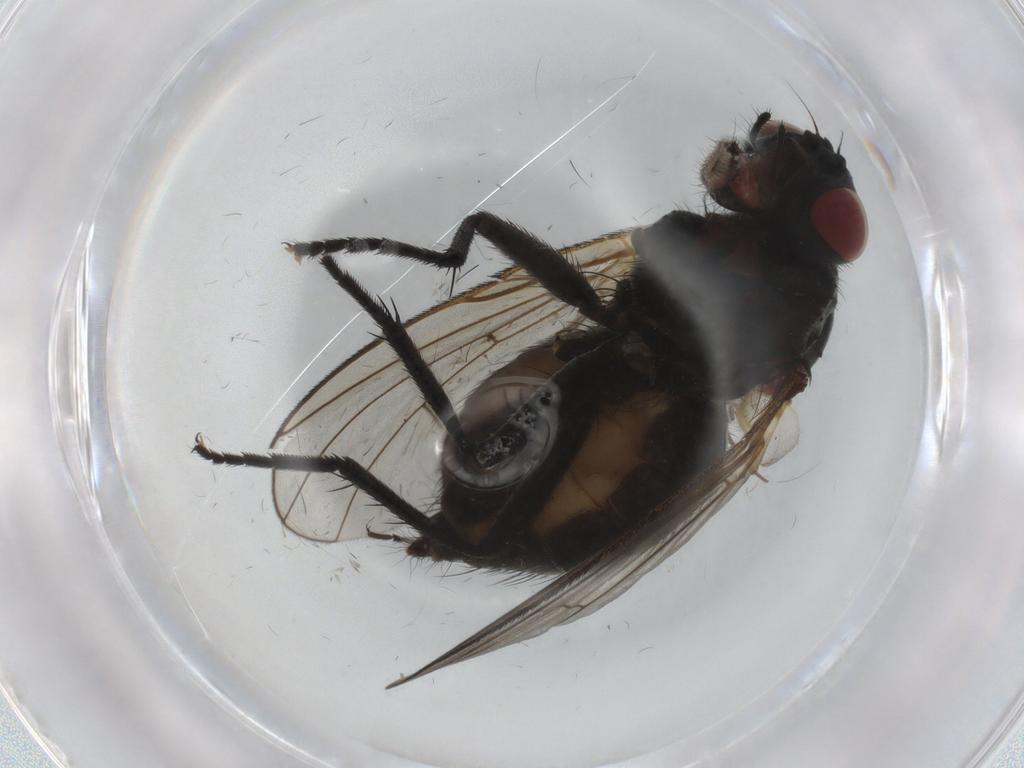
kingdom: Animalia
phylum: Arthropoda
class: Insecta
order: Diptera
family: Muscidae
